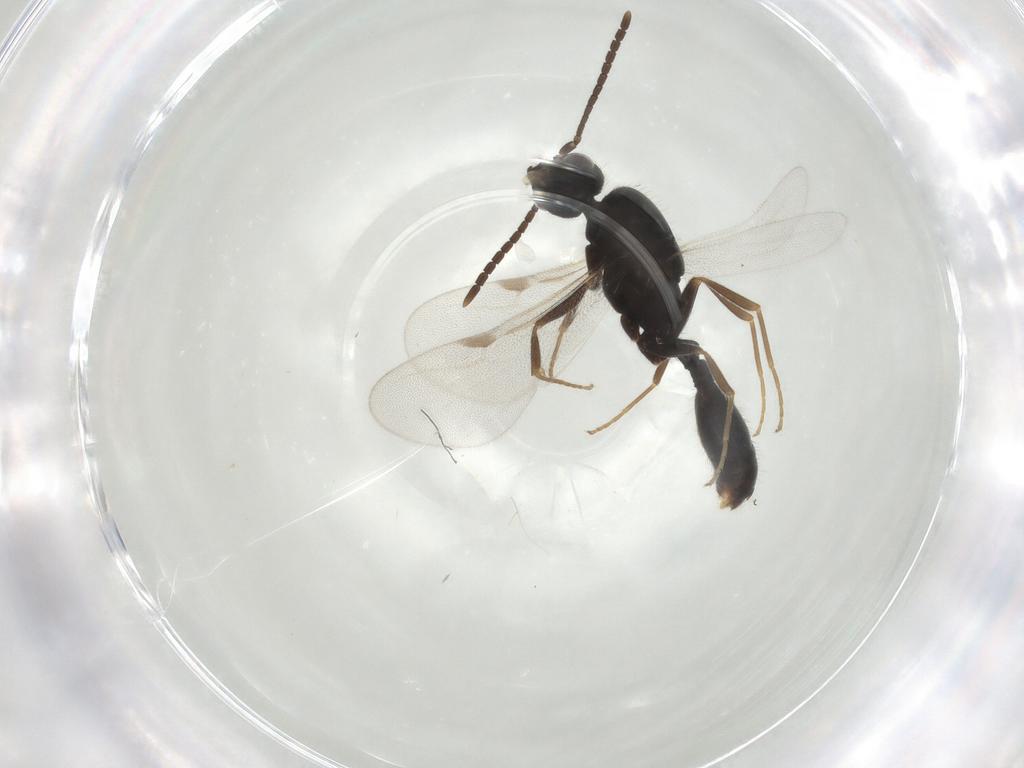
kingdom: Animalia
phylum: Arthropoda
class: Insecta
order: Hymenoptera
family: Formicidae
